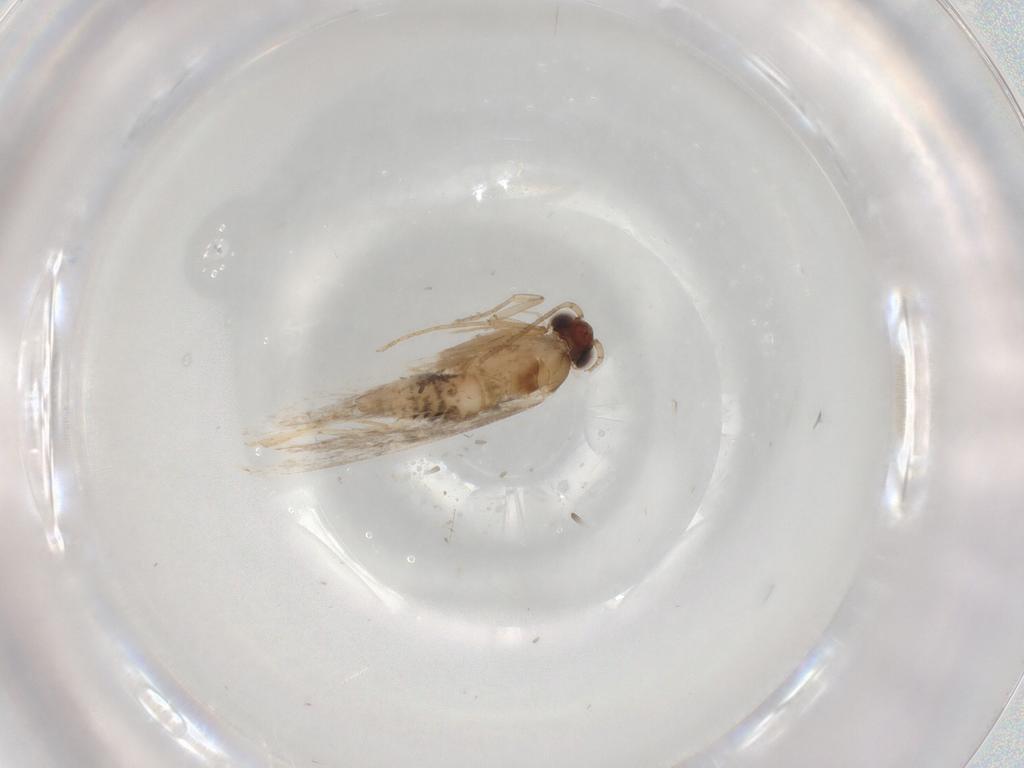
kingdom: Animalia
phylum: Arthropoda
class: Insecta
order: Lepidoptera
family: Tineidae
